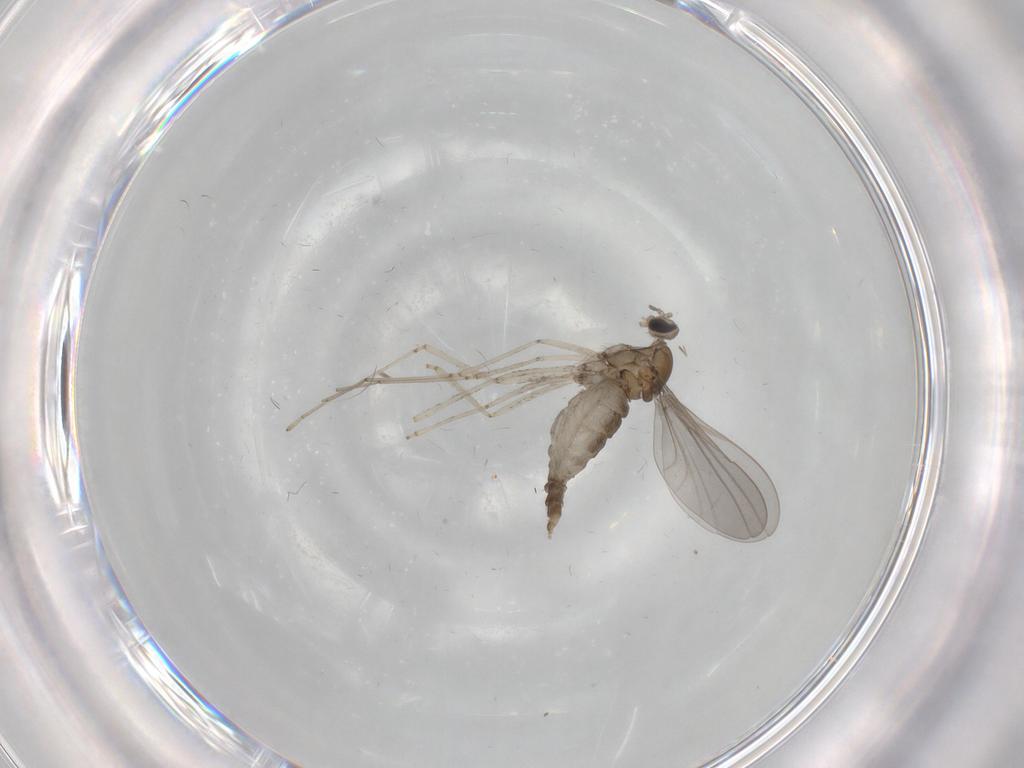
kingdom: Animalia
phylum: Arthropoda
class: Insecta
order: Diptera
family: Cecidomyiidae
